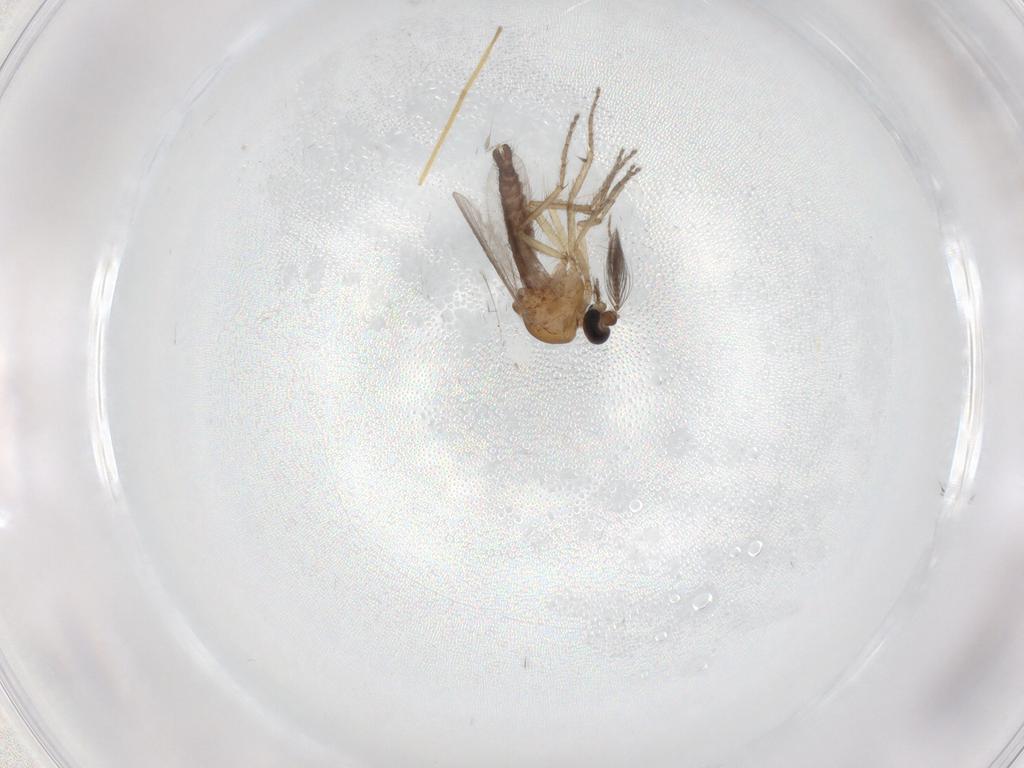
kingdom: Animalia
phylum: Arthropoda
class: Insecta
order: Diptera
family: Ceratopogonidae
